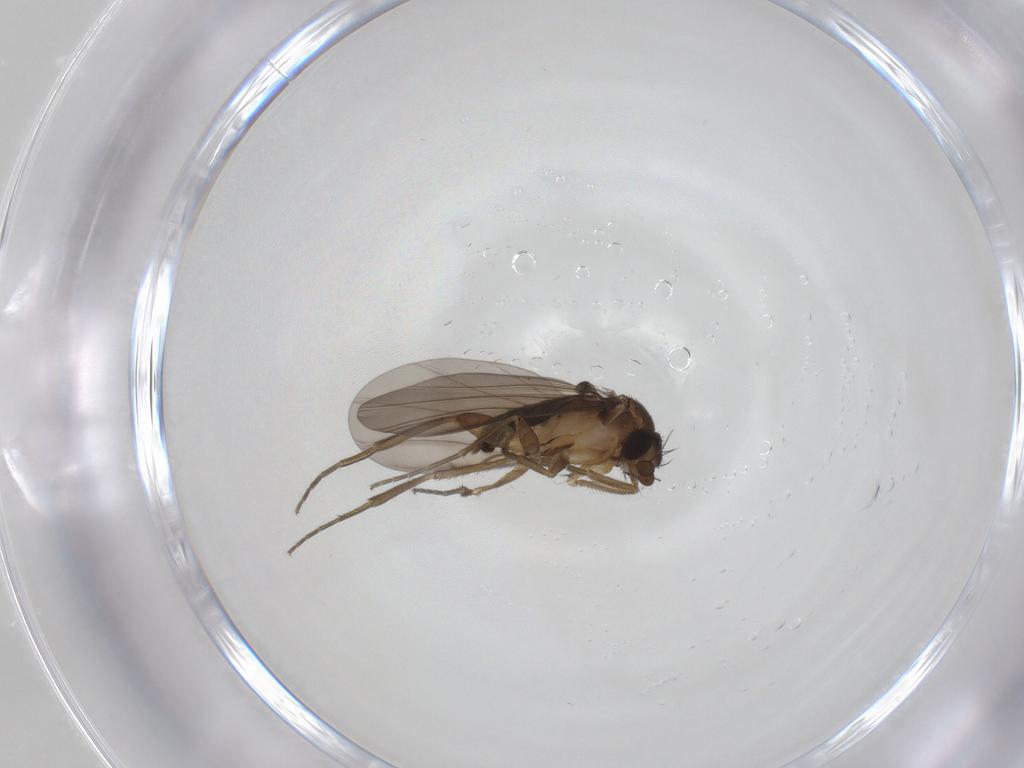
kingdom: Animalia
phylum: Arthropoda
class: Insecta
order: Diptera
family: Phoridae
